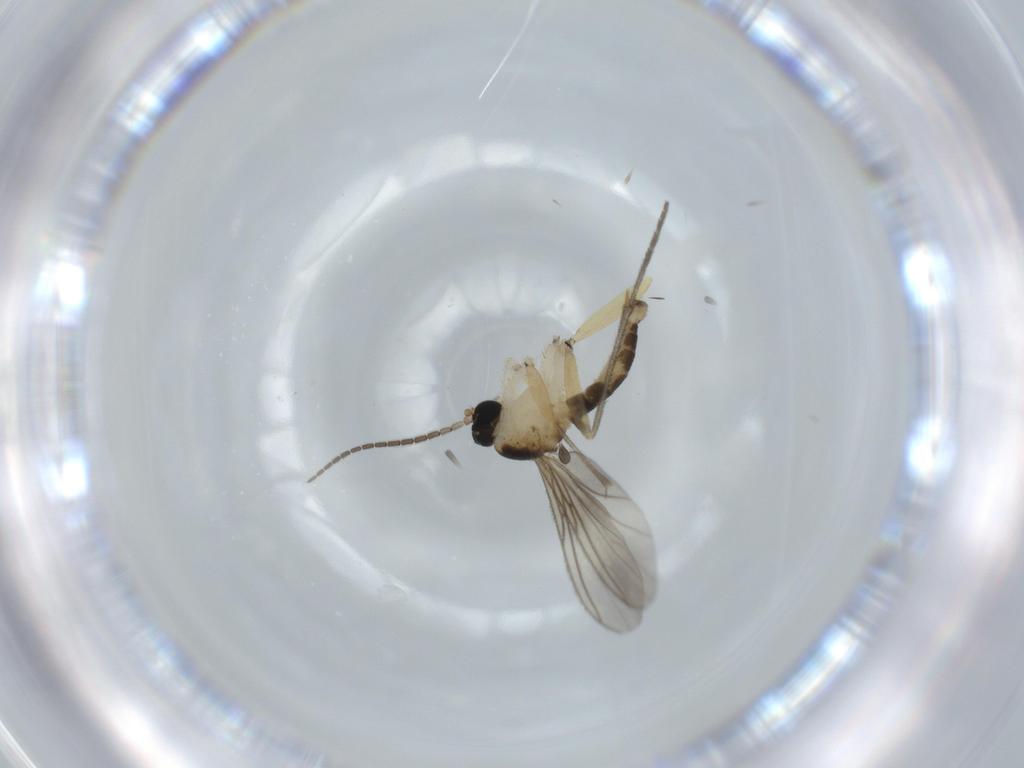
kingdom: Animalia
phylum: Arthropoda
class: Insecta
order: Diptera
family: Sciaridae
